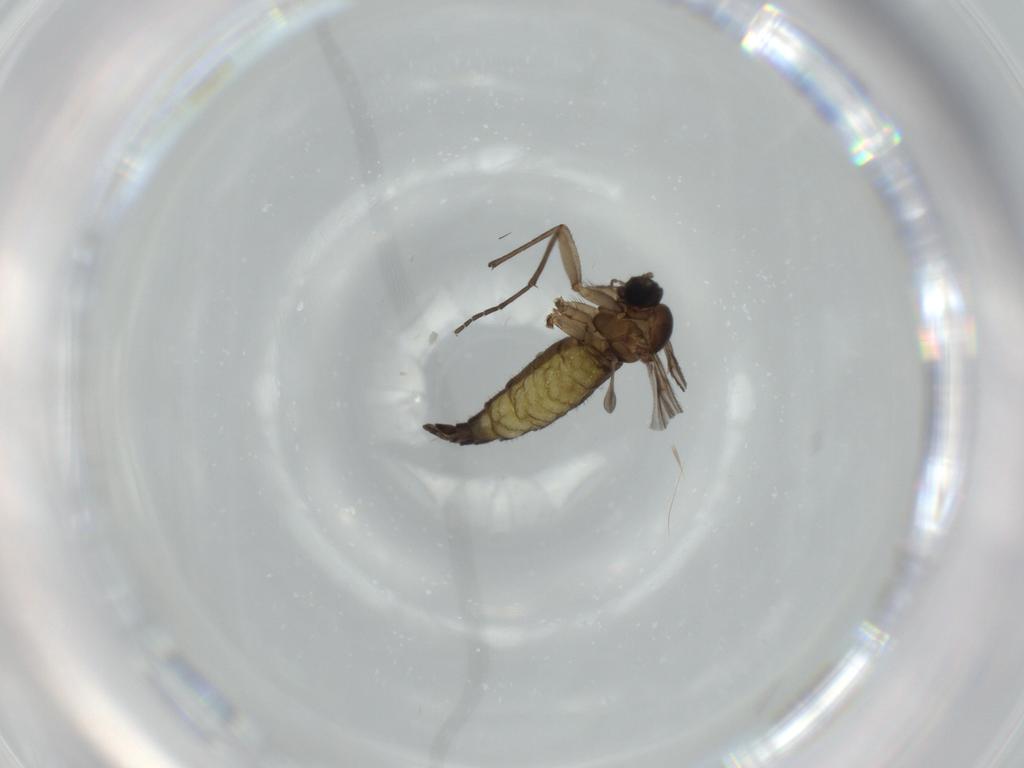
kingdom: Animalia
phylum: Arthropoda
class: Insecta
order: Diptera
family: Sciaridae
